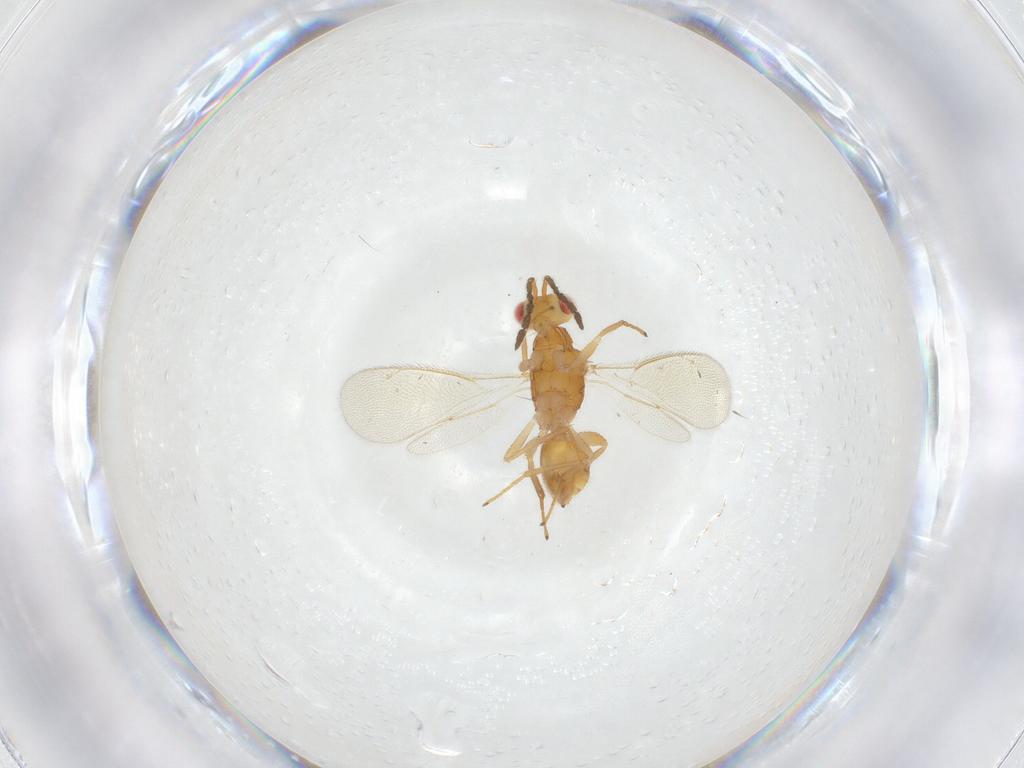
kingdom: Animalia
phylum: Arthropoda
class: Insecta
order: Hymenoptera
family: Eulophidae
